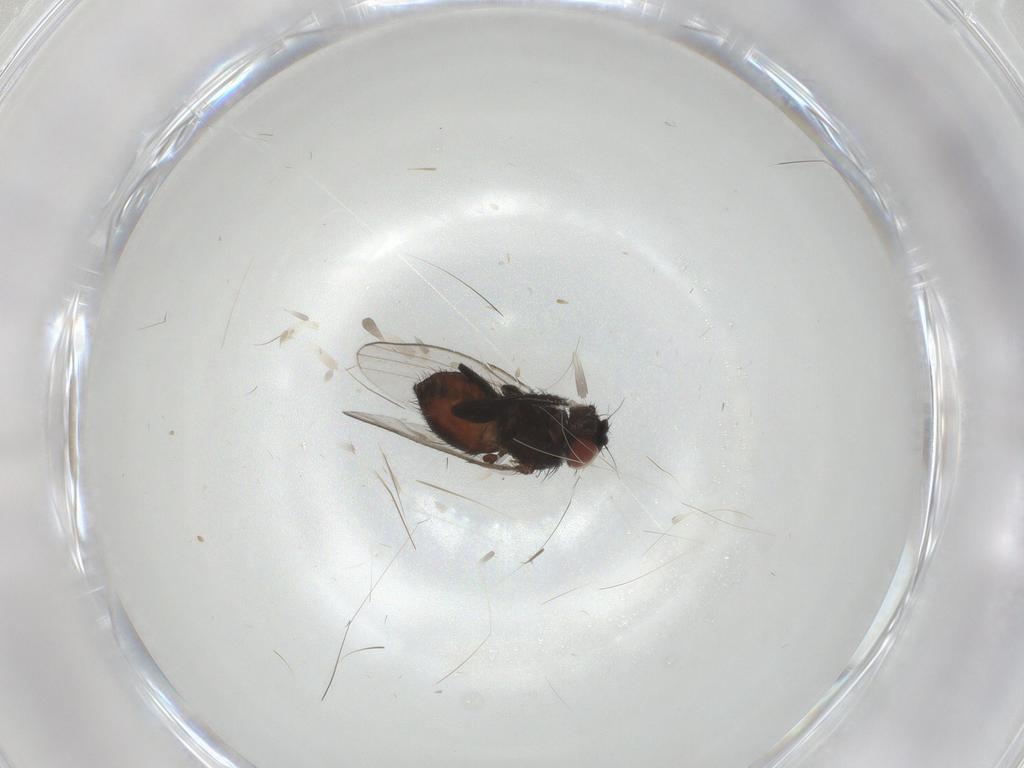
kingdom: Animalia
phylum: Arthropoda
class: Insecta
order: Diptera
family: Milichiidae
